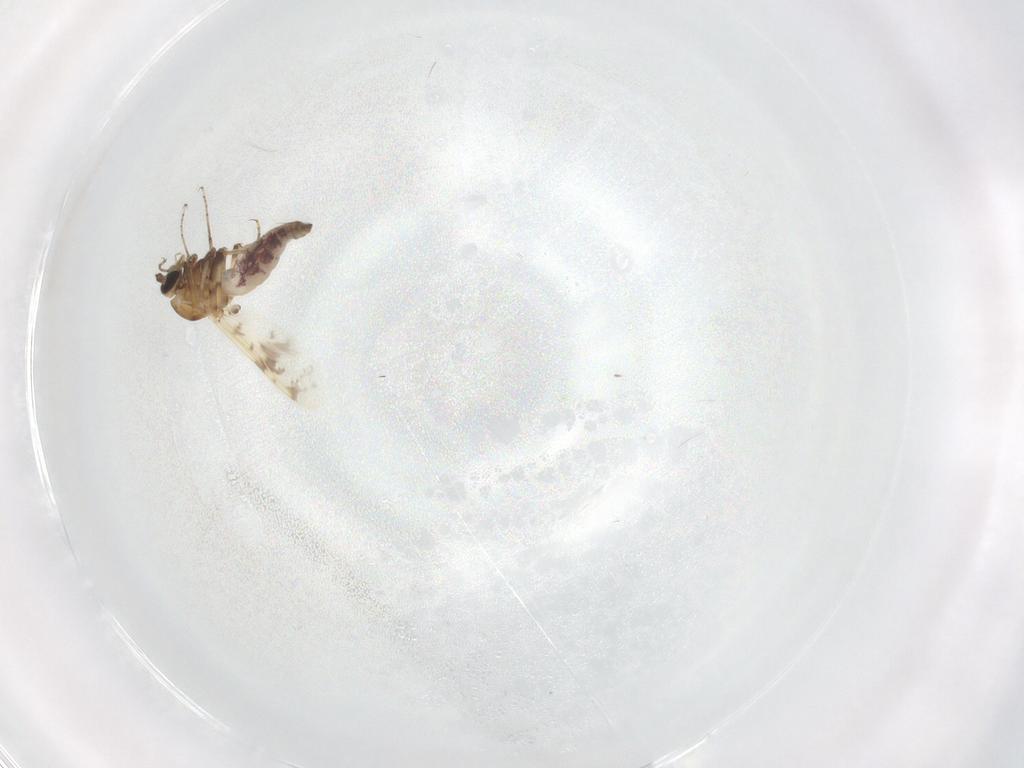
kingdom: Animalia
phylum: Arthropoda
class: Insecta
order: Diptera
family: Ceratopogonidae
